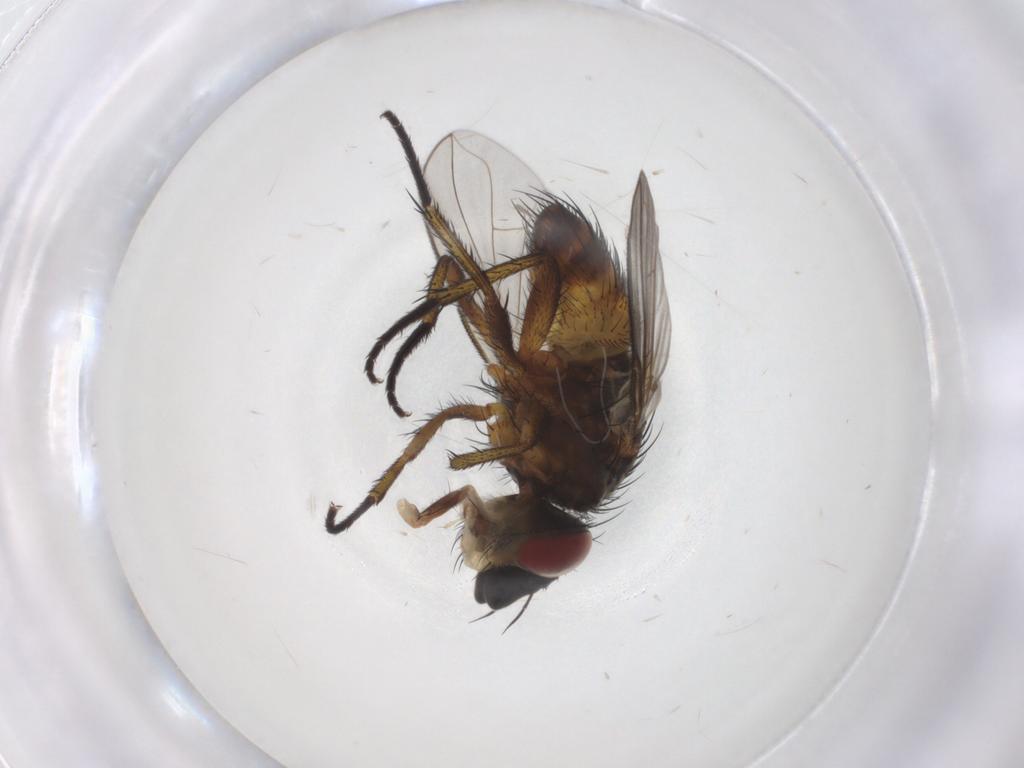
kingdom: Animalia
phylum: Arthropoda
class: Insecta
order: Diptera
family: Tachinidae
